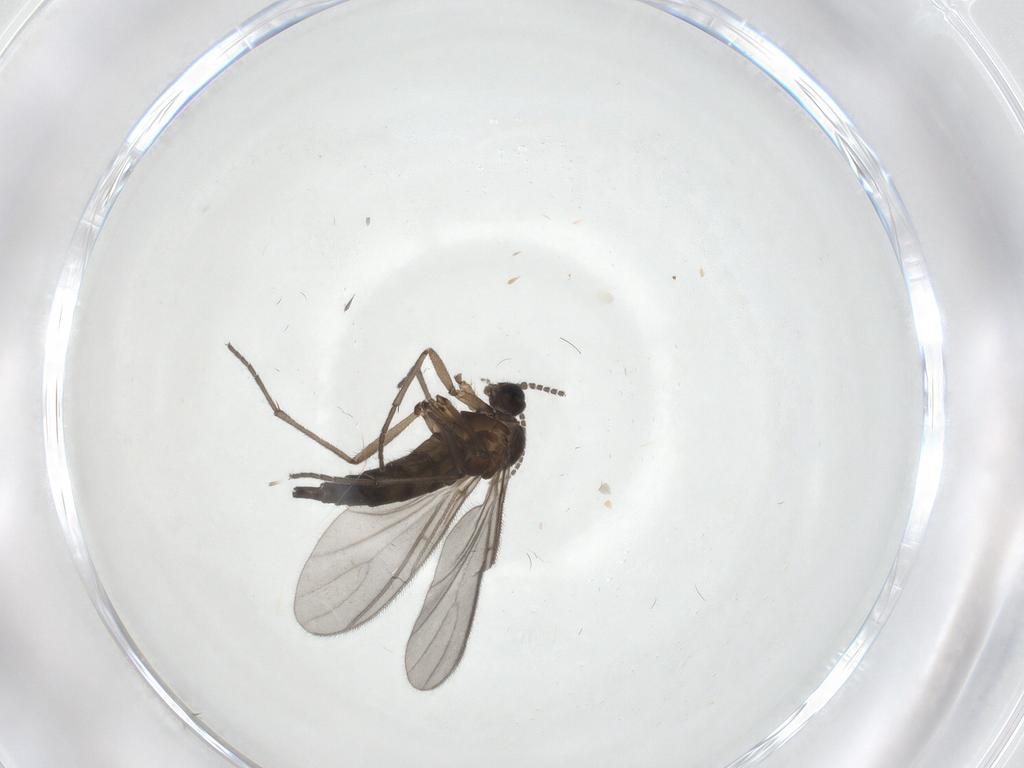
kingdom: Animalia
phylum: Arthropoda
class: Insecta
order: Diptera
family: Sciaridae
